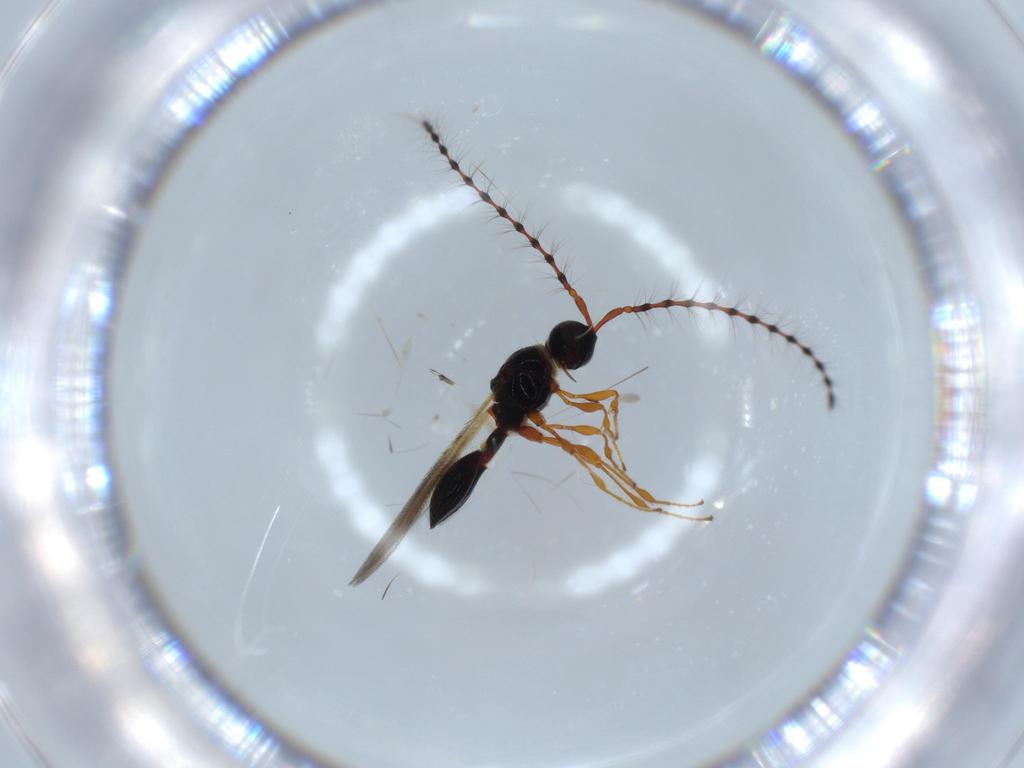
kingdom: Animalia
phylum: Arthropoda
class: Insecta
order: Hymenoptera
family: Diapriidae
